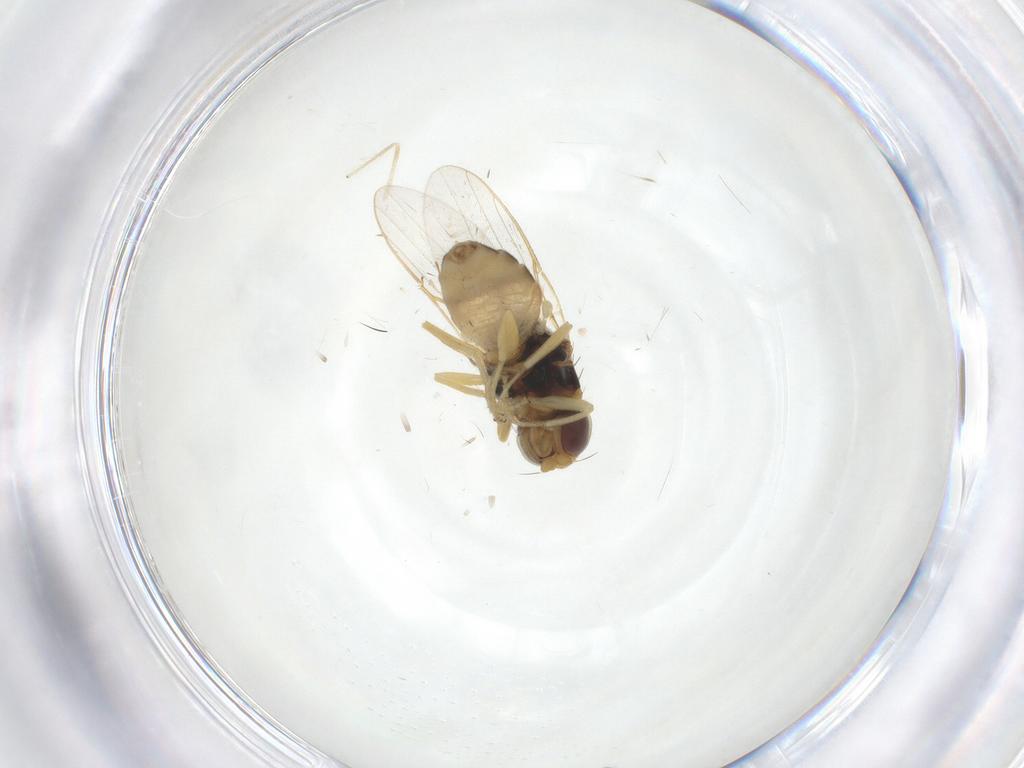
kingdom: Animalia
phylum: Arthropoda
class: Insecta
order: Diptera
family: Chloropidae
